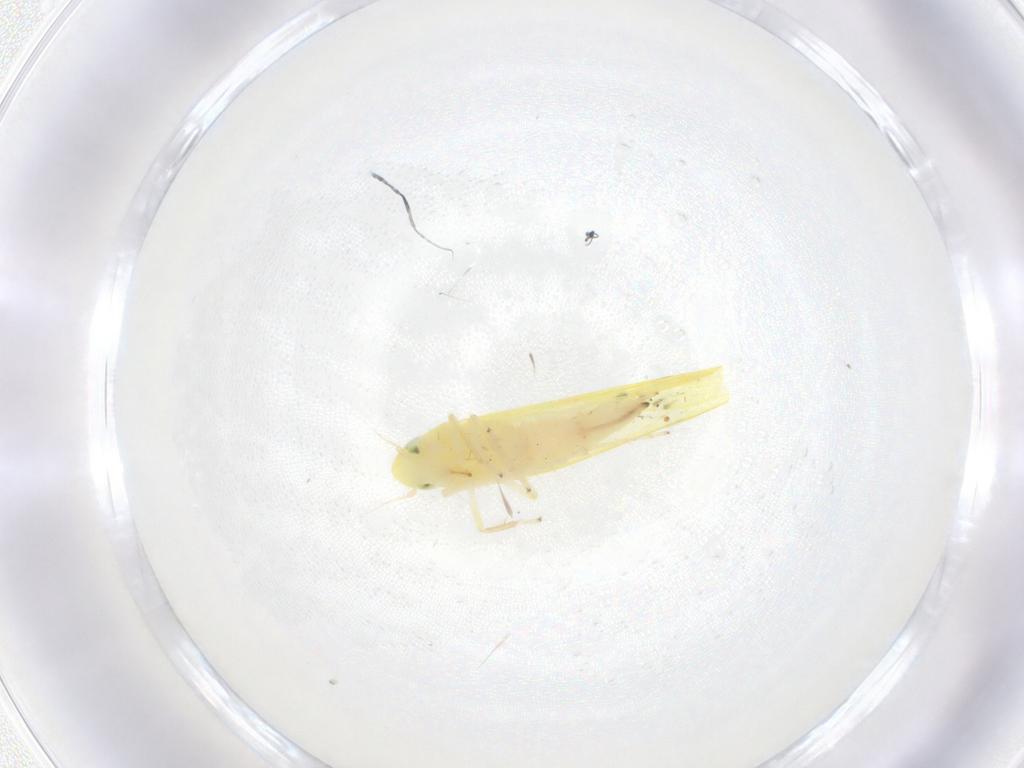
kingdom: Animalia
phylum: Arthropoda
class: Insecta
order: Hemiptera
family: Cicadellidae
